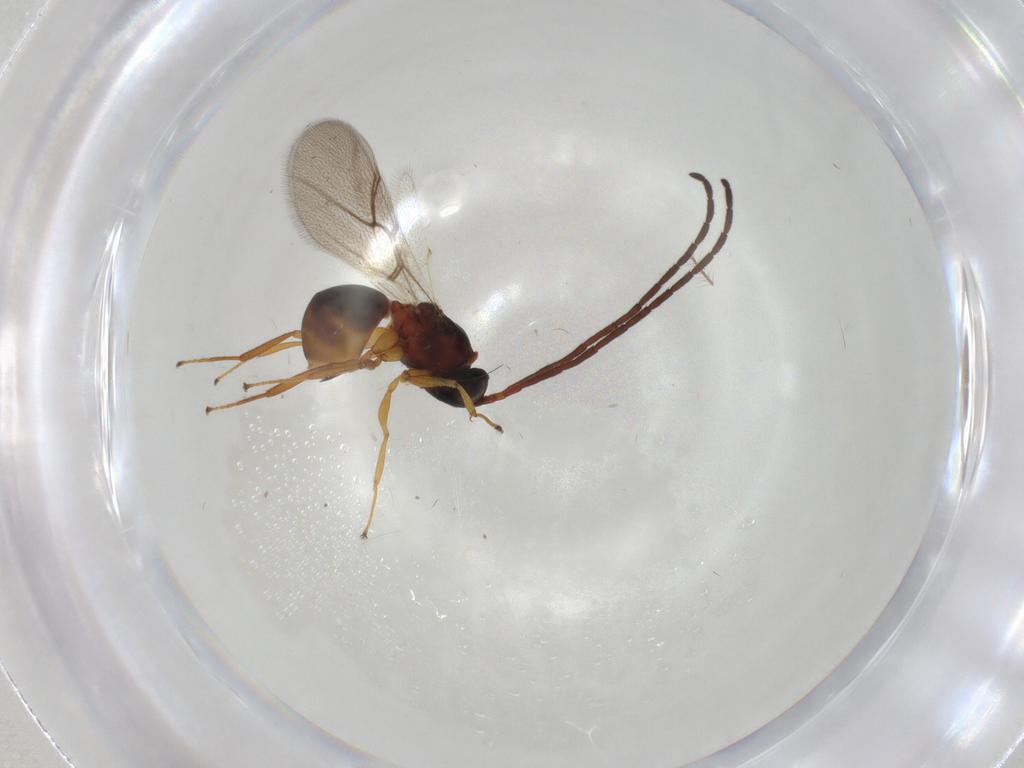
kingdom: Animalia
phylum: Arthropoda
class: Insecta
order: Hymenoptera
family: Figitidae
